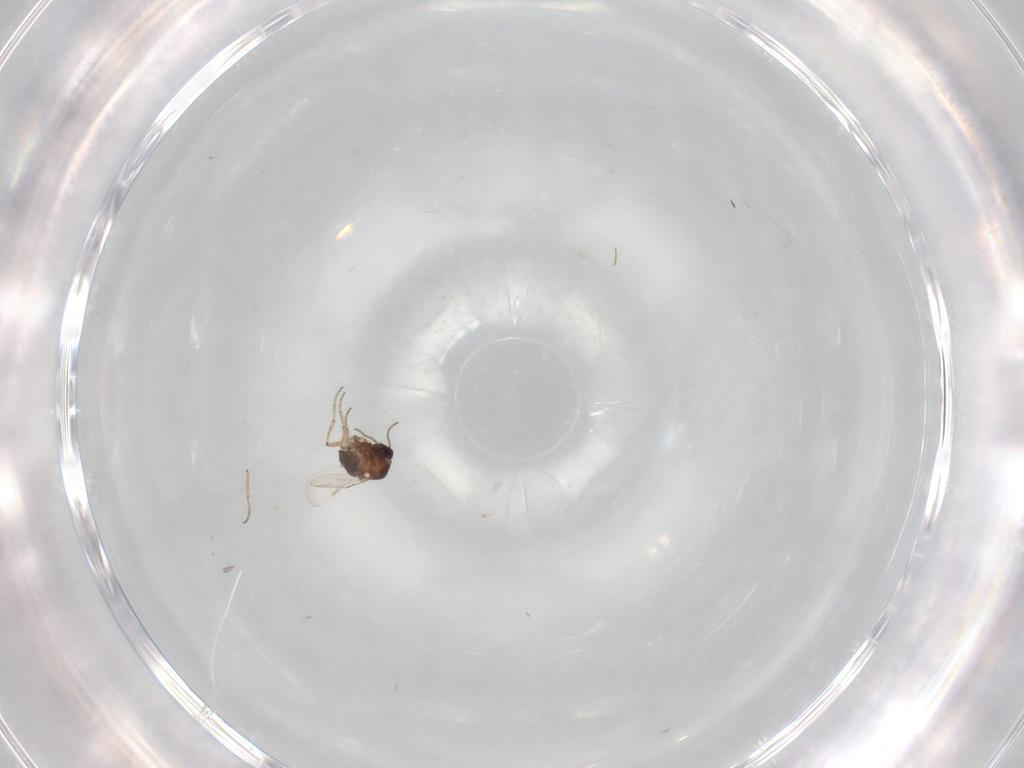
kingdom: Animalia
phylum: Arthropoda
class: Insecta
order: Diptera
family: Ceratopogonidae
